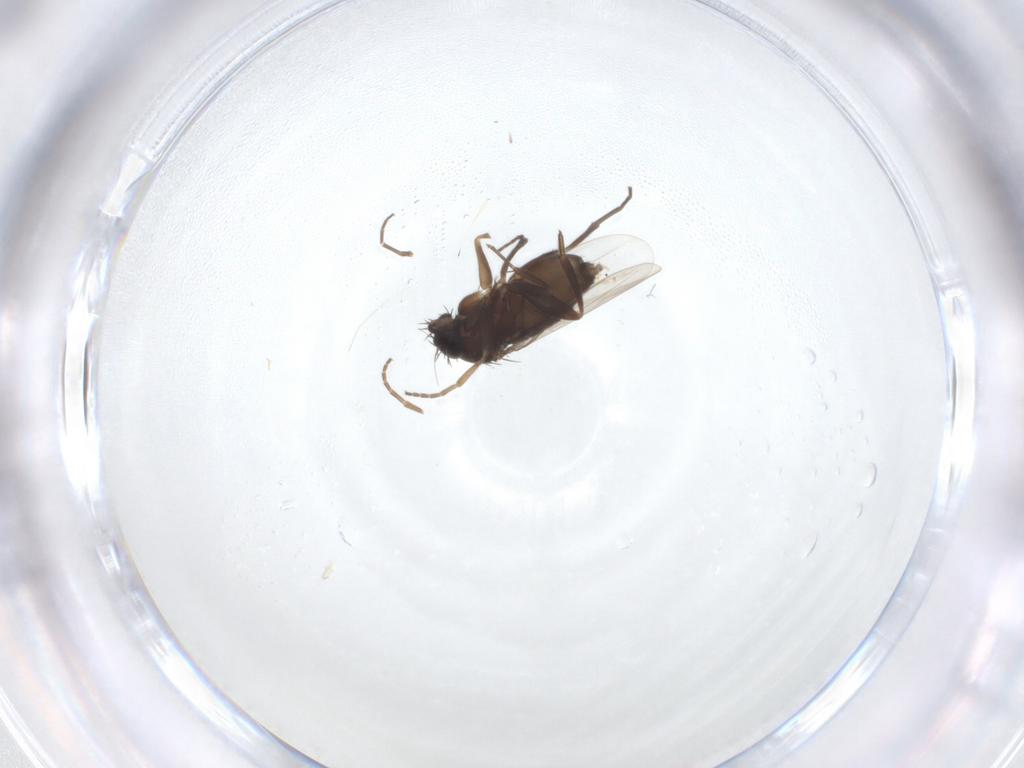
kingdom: Animalia
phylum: Arthropoda
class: Insecta
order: Diptera
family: Phoridae
